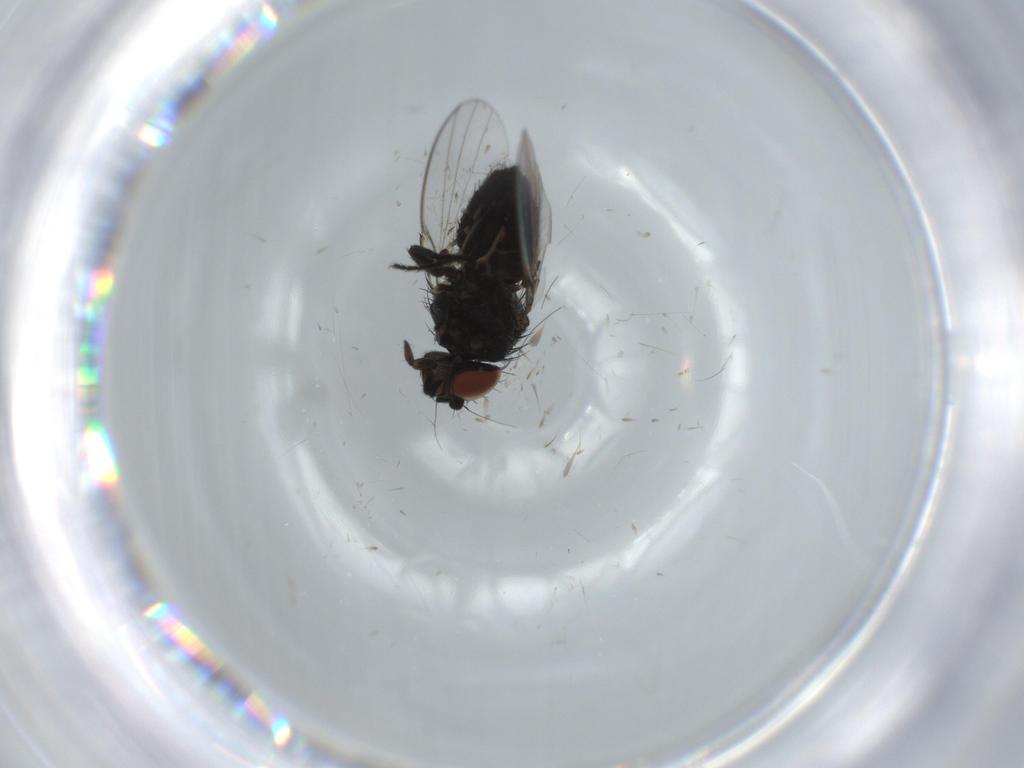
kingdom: Animalia
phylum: Arthropoda
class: Insecta
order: Diptera
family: Milichiidae
